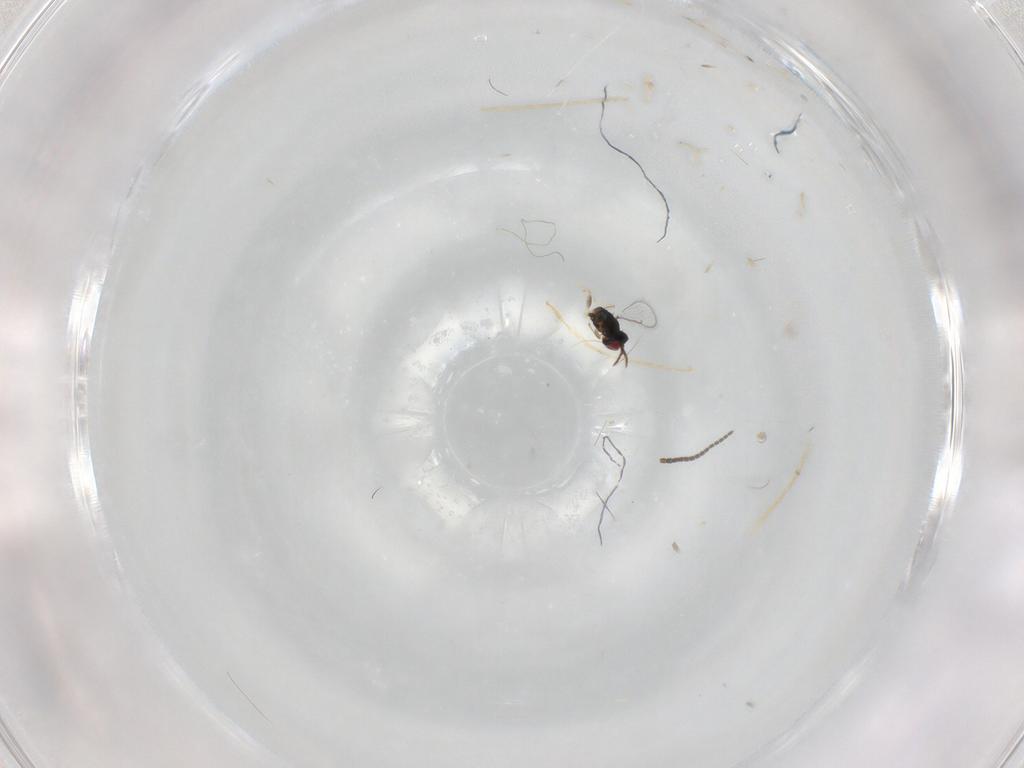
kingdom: Animalia
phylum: Arthropoda
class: Insecta
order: Hymenoptera
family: Eulophidae
